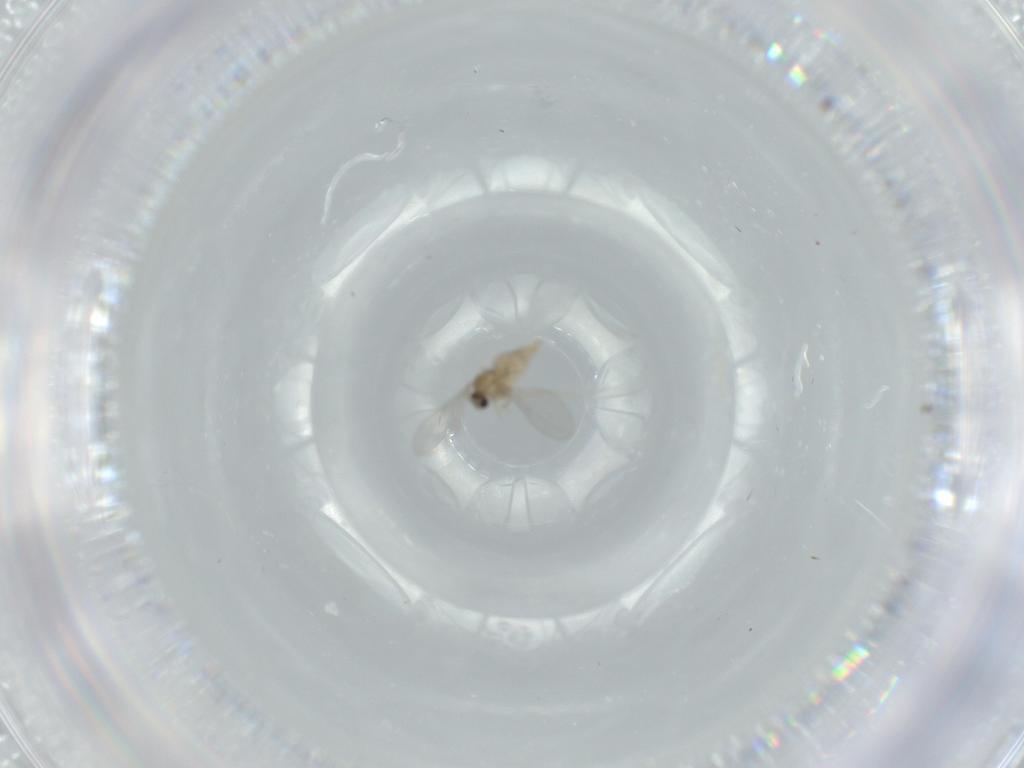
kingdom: Animalia
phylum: Arthropoda
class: Insecta
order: Diptera
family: Cecidomyiidae
